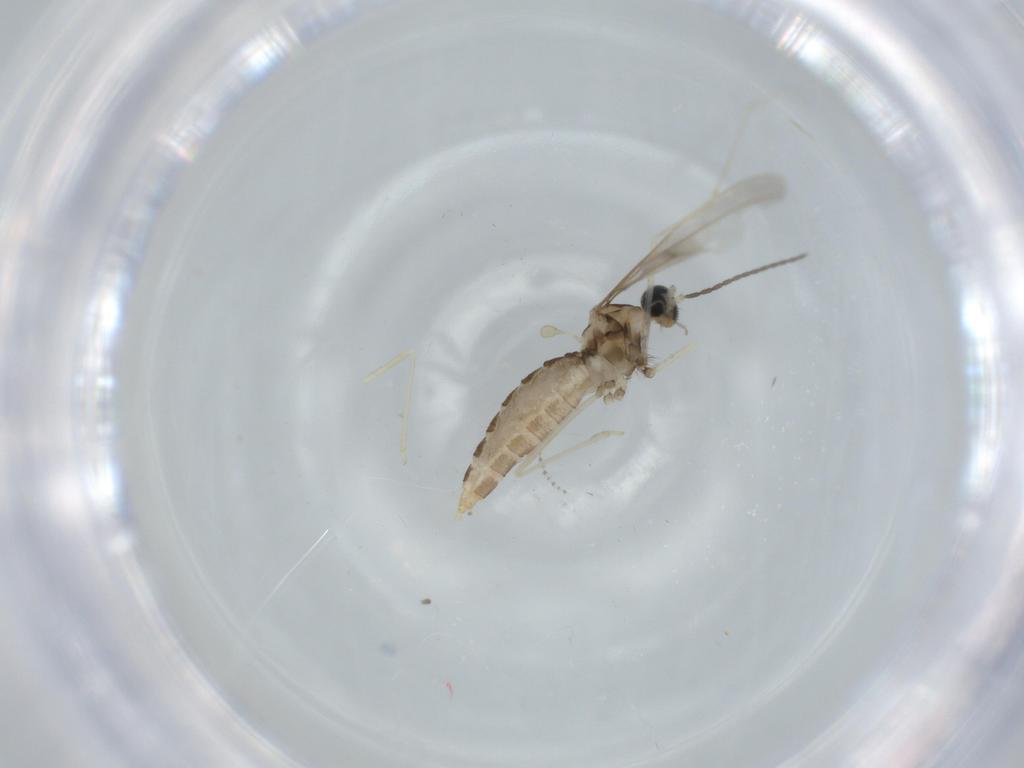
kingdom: Animalia
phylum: Arthropoda
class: Insecta
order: Diptera
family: Cecidomyiidae
